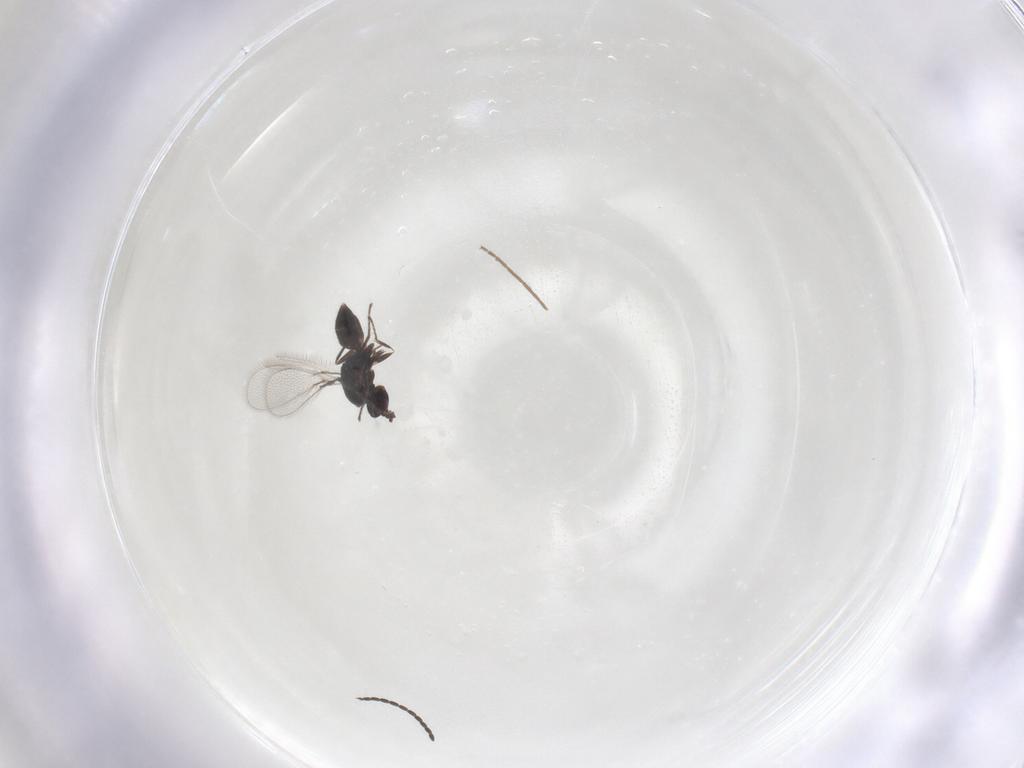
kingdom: Animalia
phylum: Arthropoda
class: Insecta
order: Hymenoptera
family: Mymaridae
